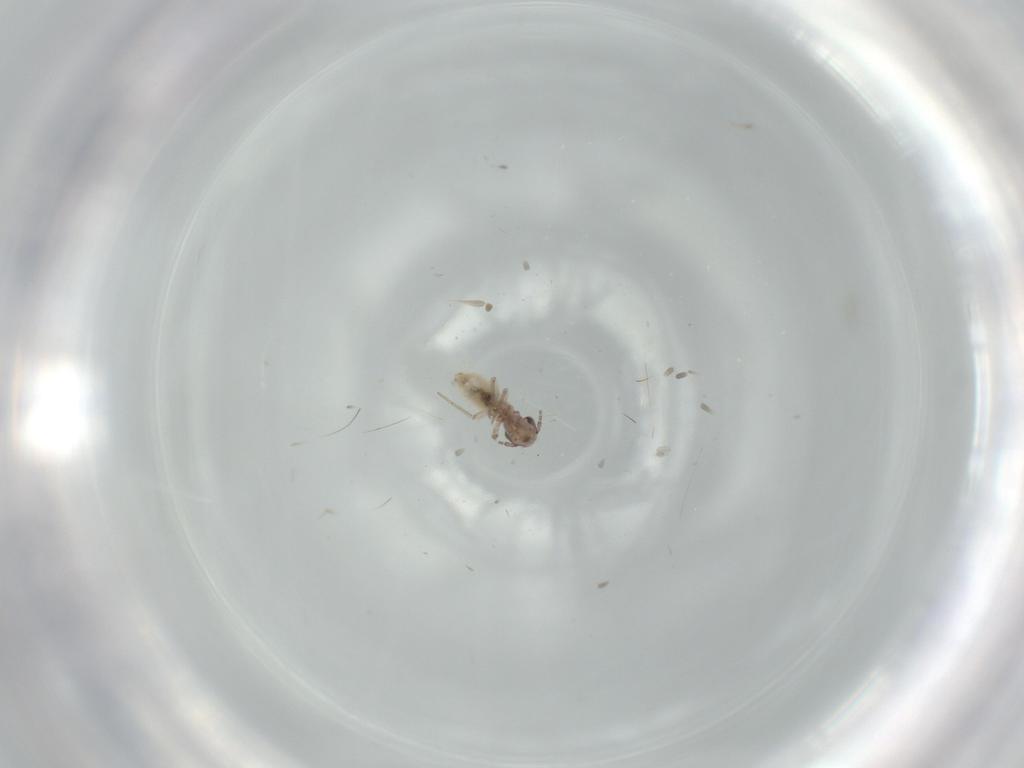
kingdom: Animalia
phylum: Arthropoda
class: Insecta
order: Psocodea
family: Lepidopsocidae
